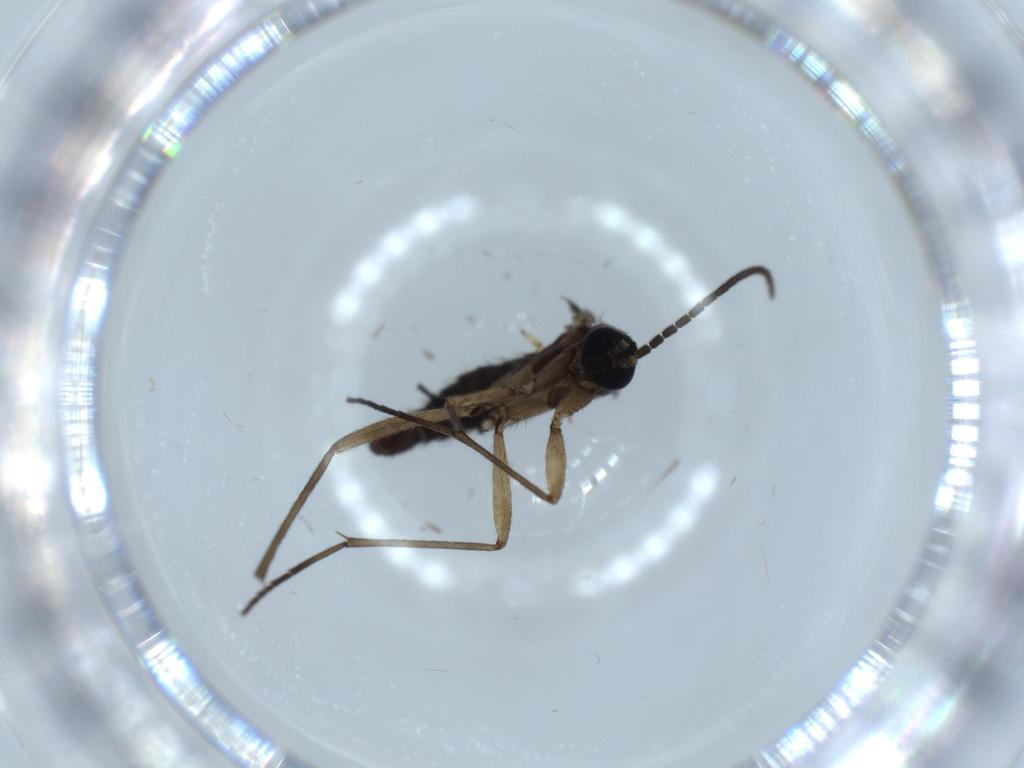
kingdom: Animalia
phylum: Arthropoda
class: Insecta
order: Diptera
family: Sciaridae
